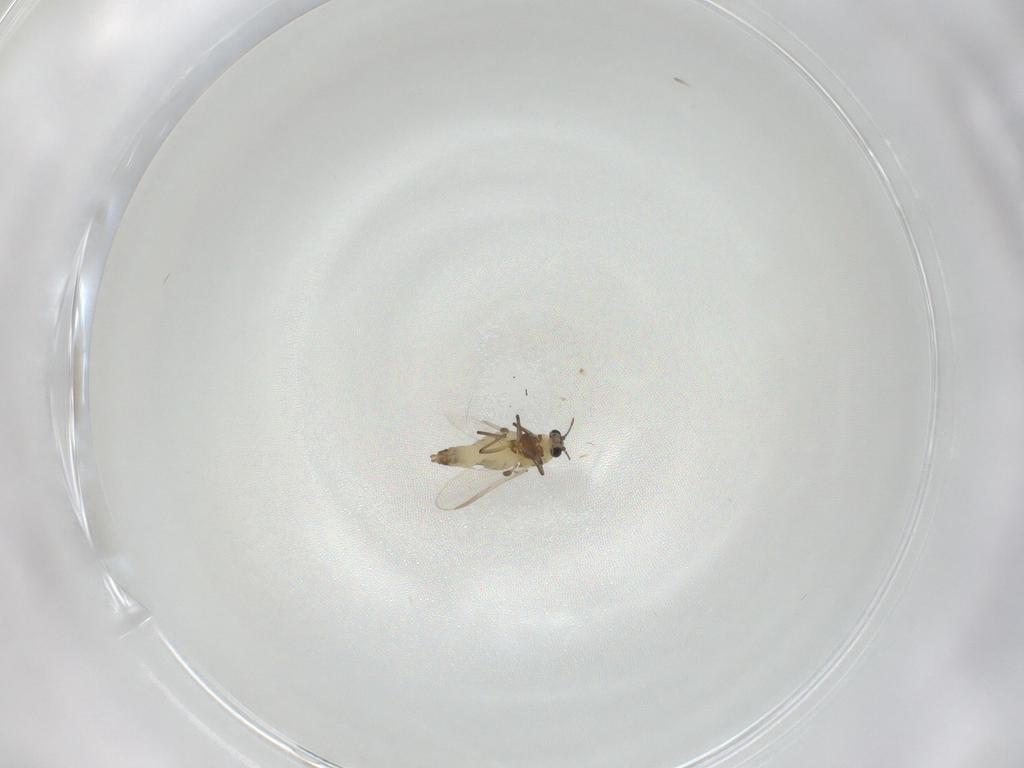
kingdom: Animalia
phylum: Arthropoda
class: Insecta
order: Diptera
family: Chironomidae
